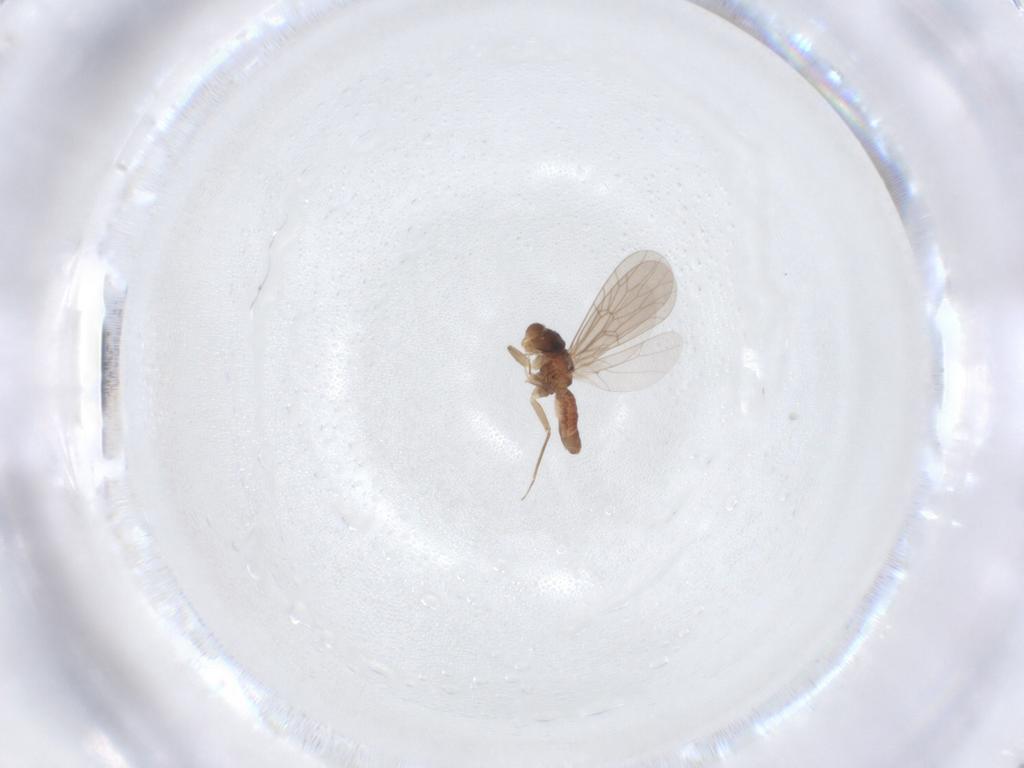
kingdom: Animalia
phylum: Arthropoda
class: Insecta
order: Psocodea
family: Lepidopsocidae
